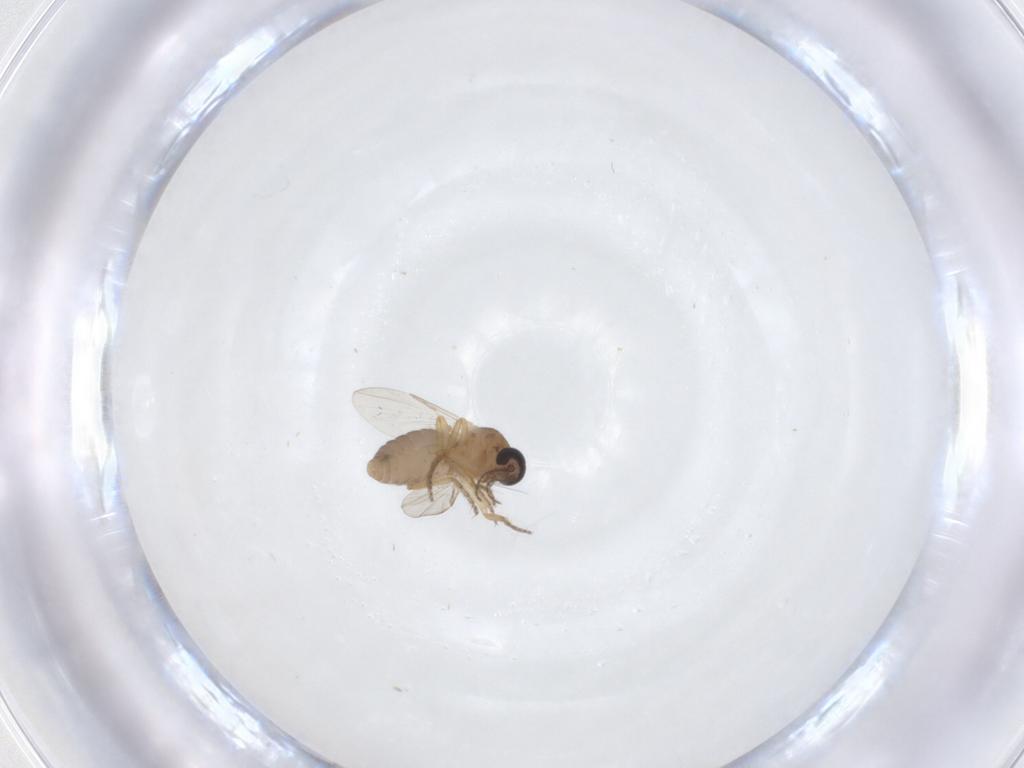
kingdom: Animalia
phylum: Arthropoda
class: Insecta
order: Diptera
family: Ceratopogonidae
